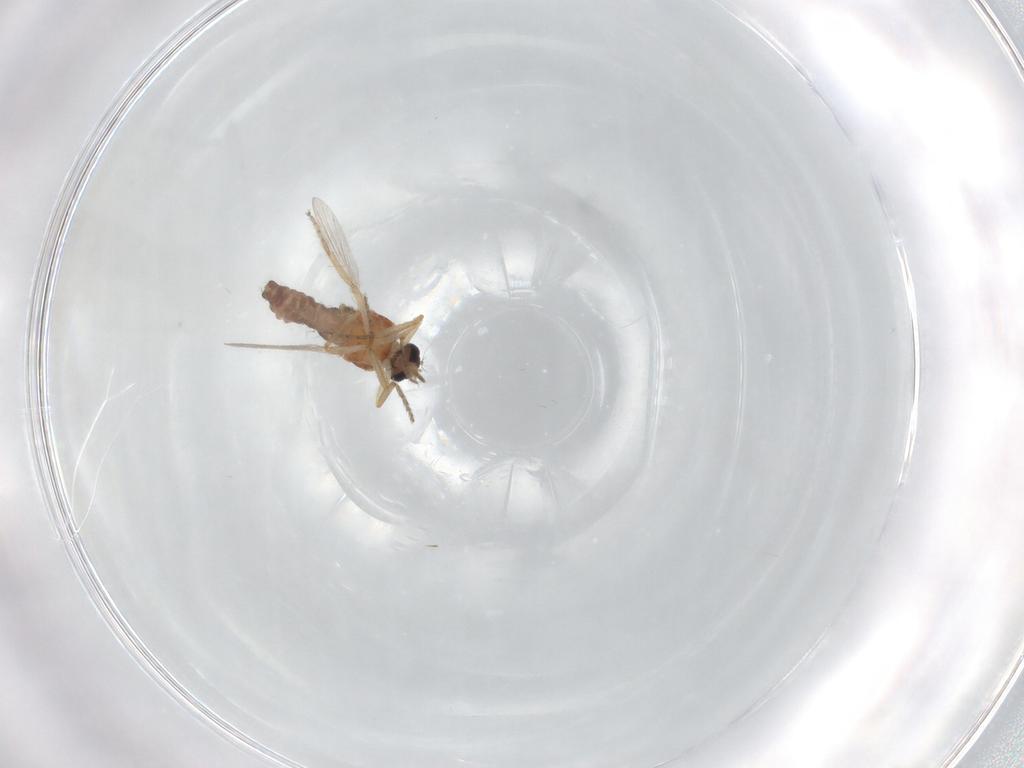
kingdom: Animalia
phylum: Arthropoda
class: Insecta
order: Diptera
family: Ceratopogonidae
